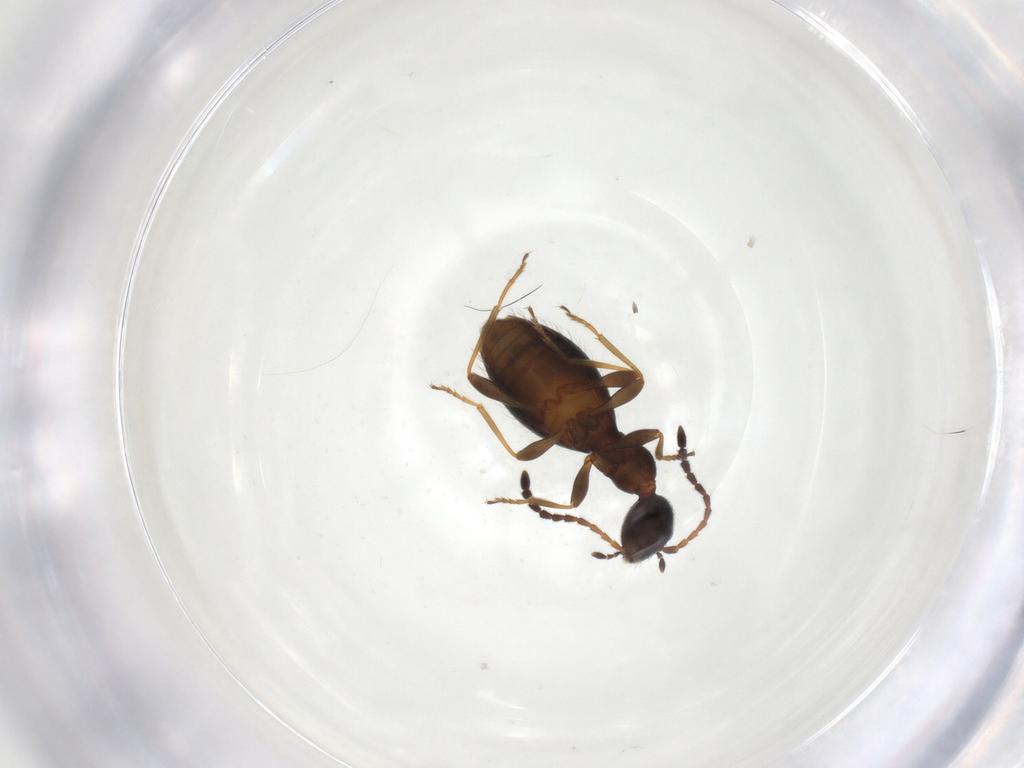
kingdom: Animalia
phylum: Arthropoda
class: Insecta
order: Coleoptera
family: Anthicidae
